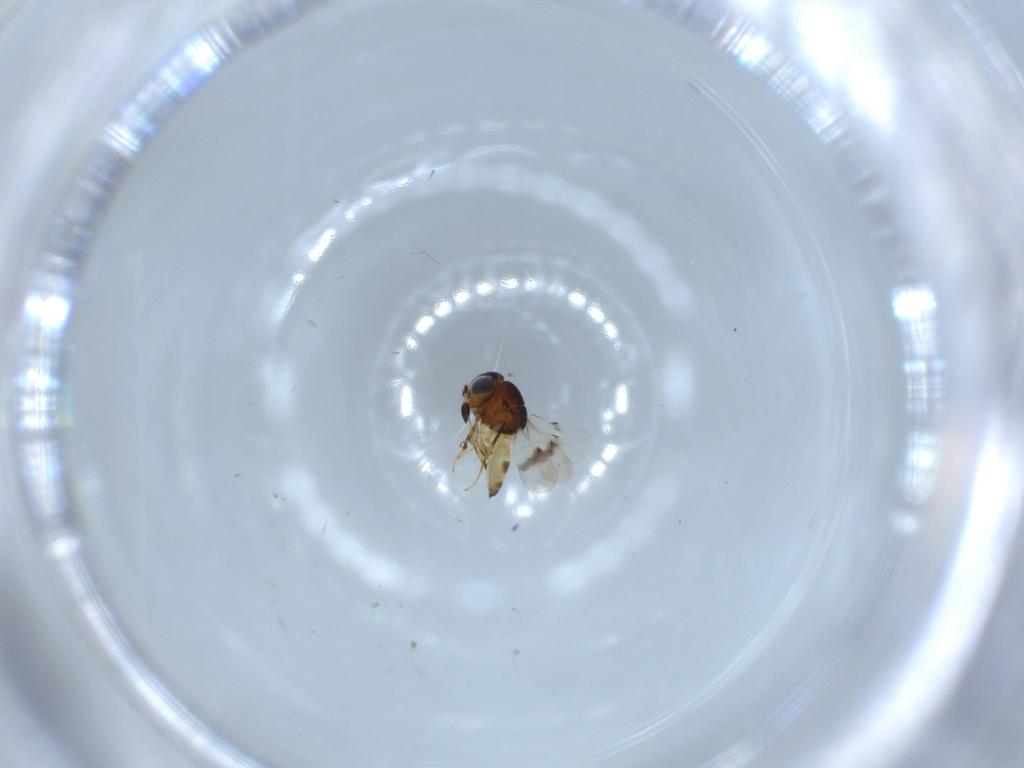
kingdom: Animalia
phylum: Arthropoda
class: Arachnida
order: Araneae
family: Pholcidae
